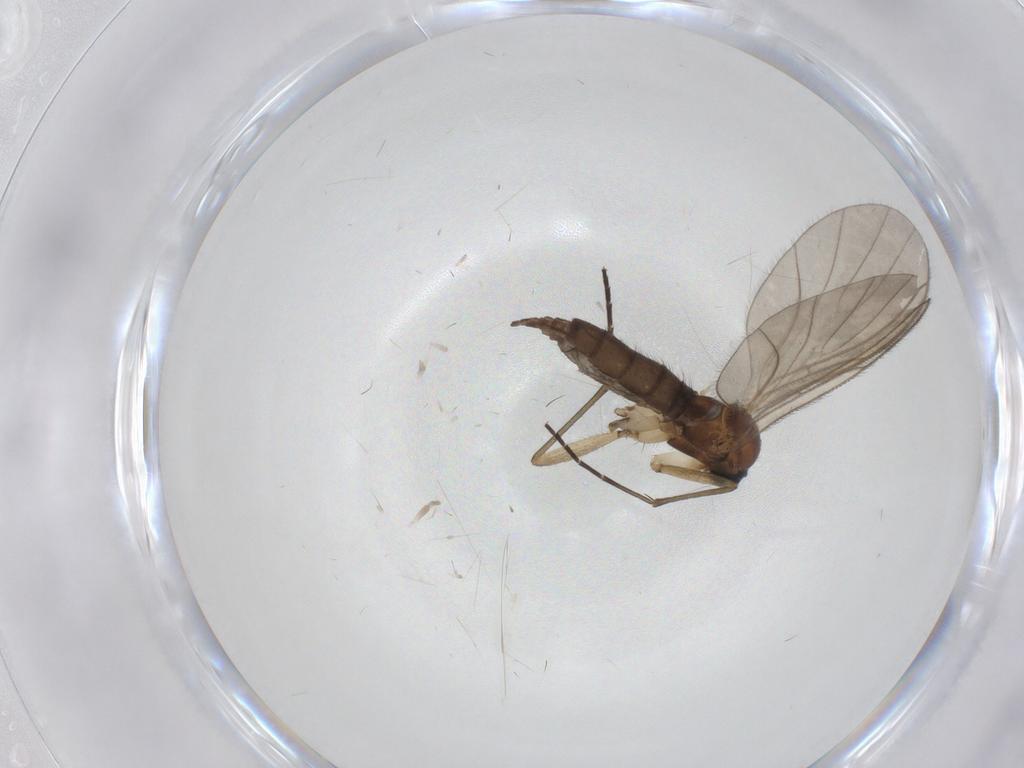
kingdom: Animalia
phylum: Arthropoda
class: Insecta
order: Diptera
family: Sciaridae
